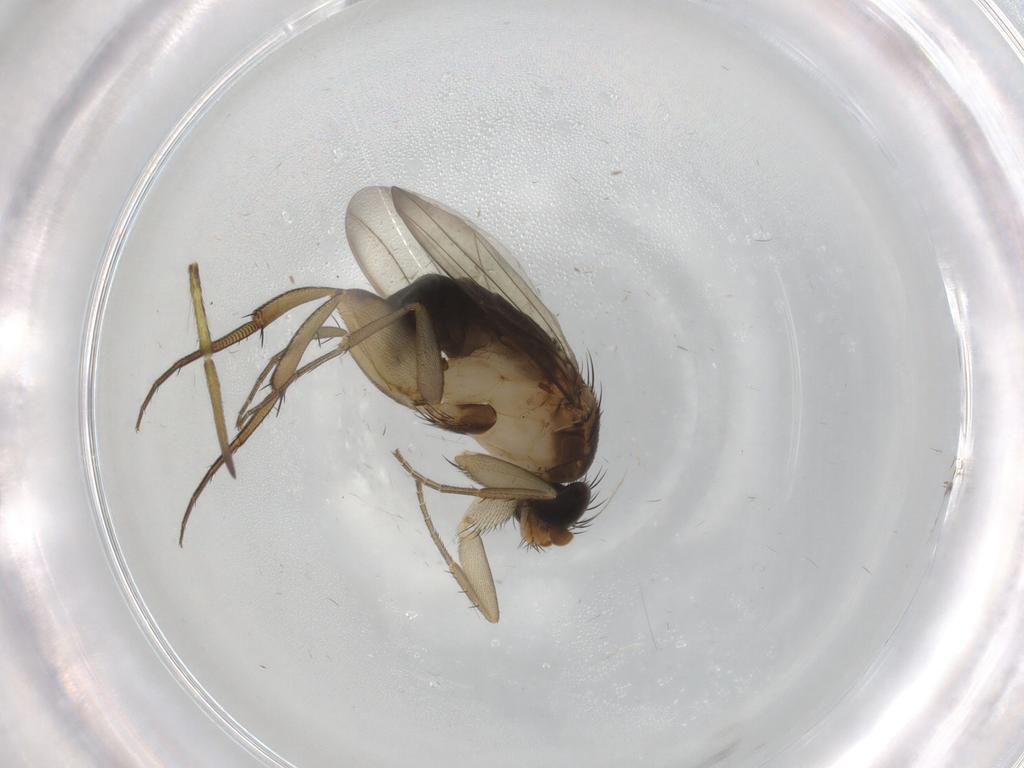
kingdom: Animalia
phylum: Arthropoda
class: Insecta
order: Diptera
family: Phoridae
